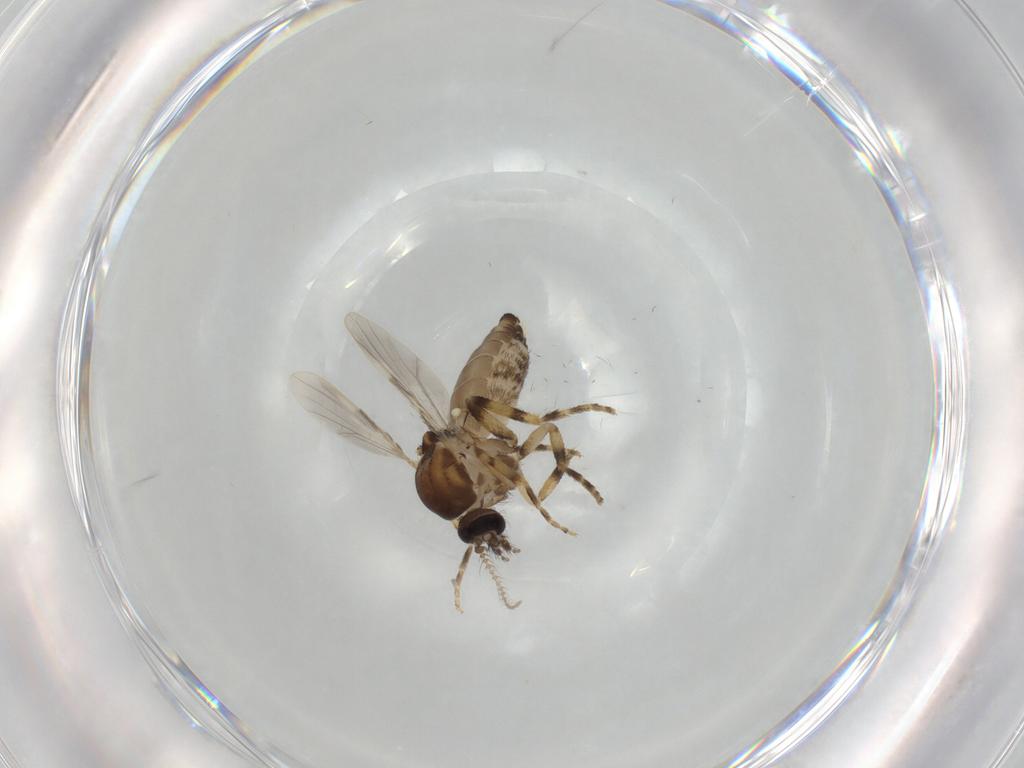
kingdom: Animalia
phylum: Arthropoda
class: Insecta
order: Diptera
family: Ceratopogonidae
